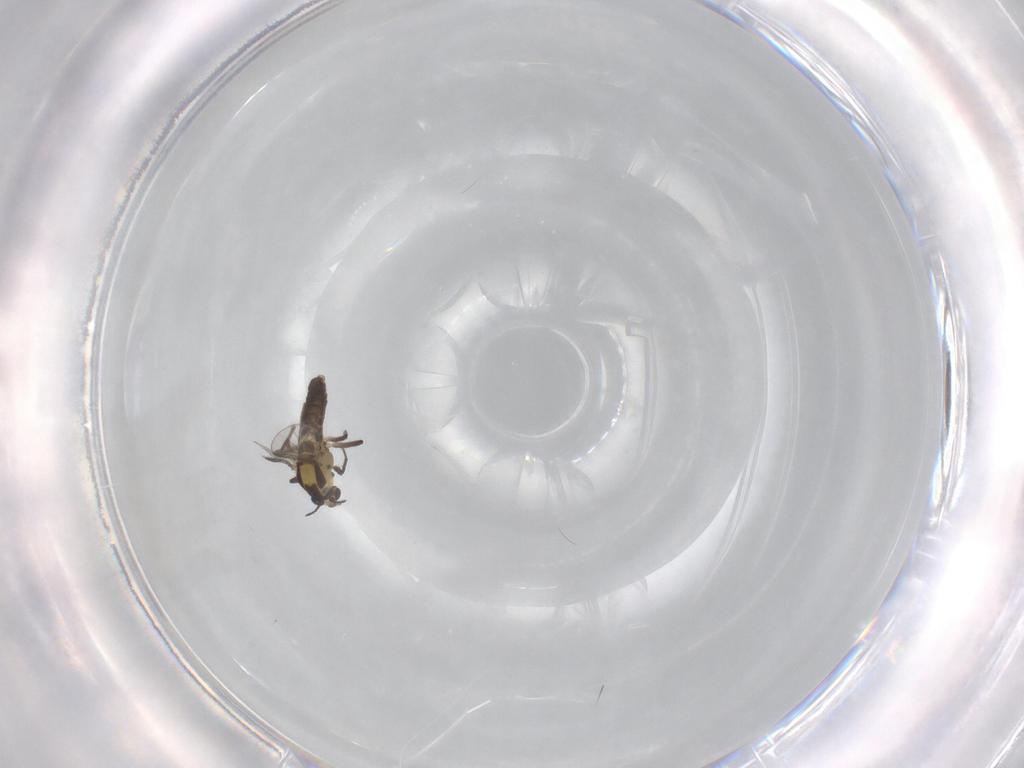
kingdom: Animalia
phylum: Arthropoda
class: Insecta
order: Diptera
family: Chironomidae
